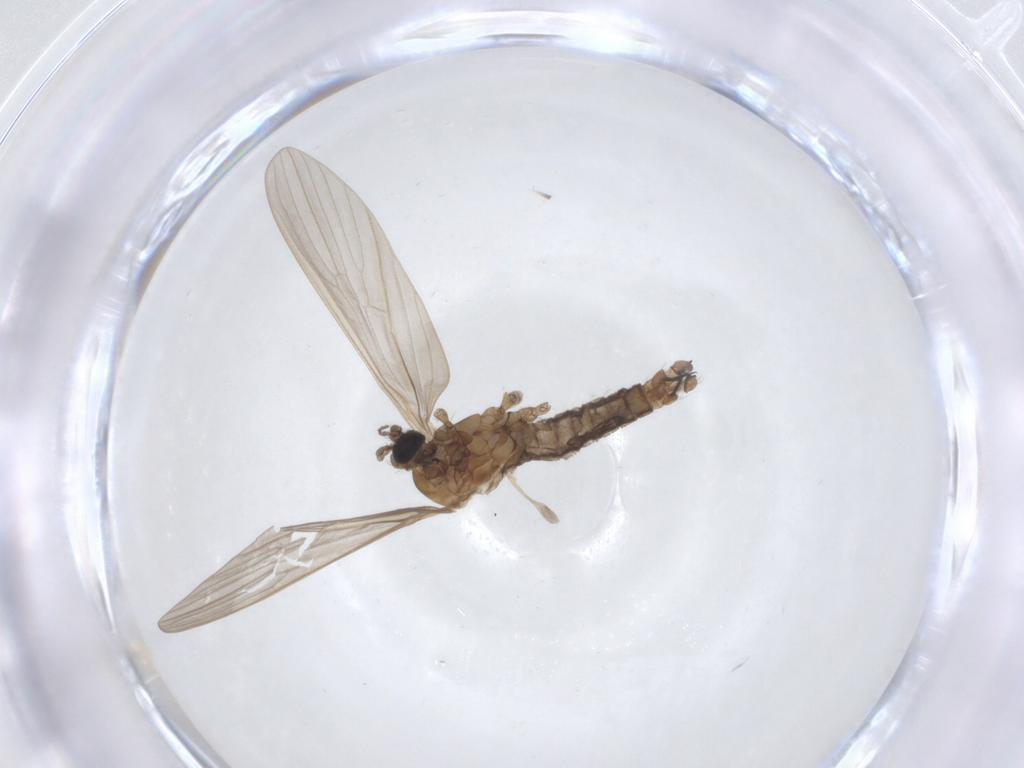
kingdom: Animalia
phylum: Arthropoda
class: Insecta
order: Diptera
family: Cecidomyiidae
